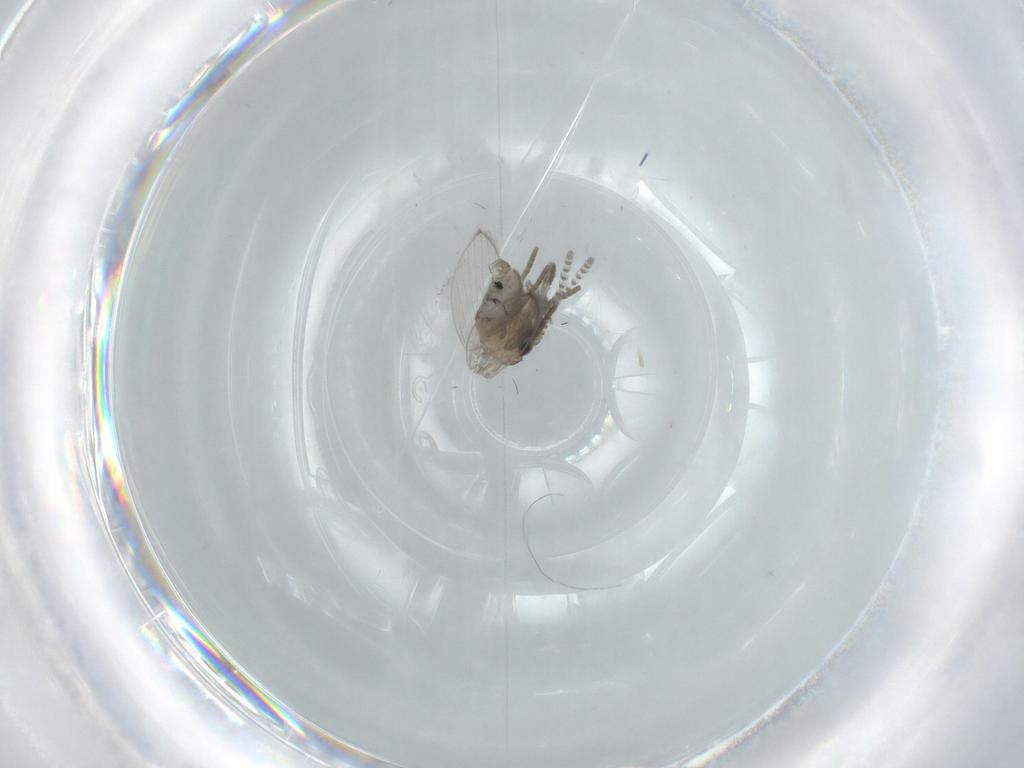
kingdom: Animalia
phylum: Arthropoda
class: Insecta
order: Diptera
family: Psychodidae
